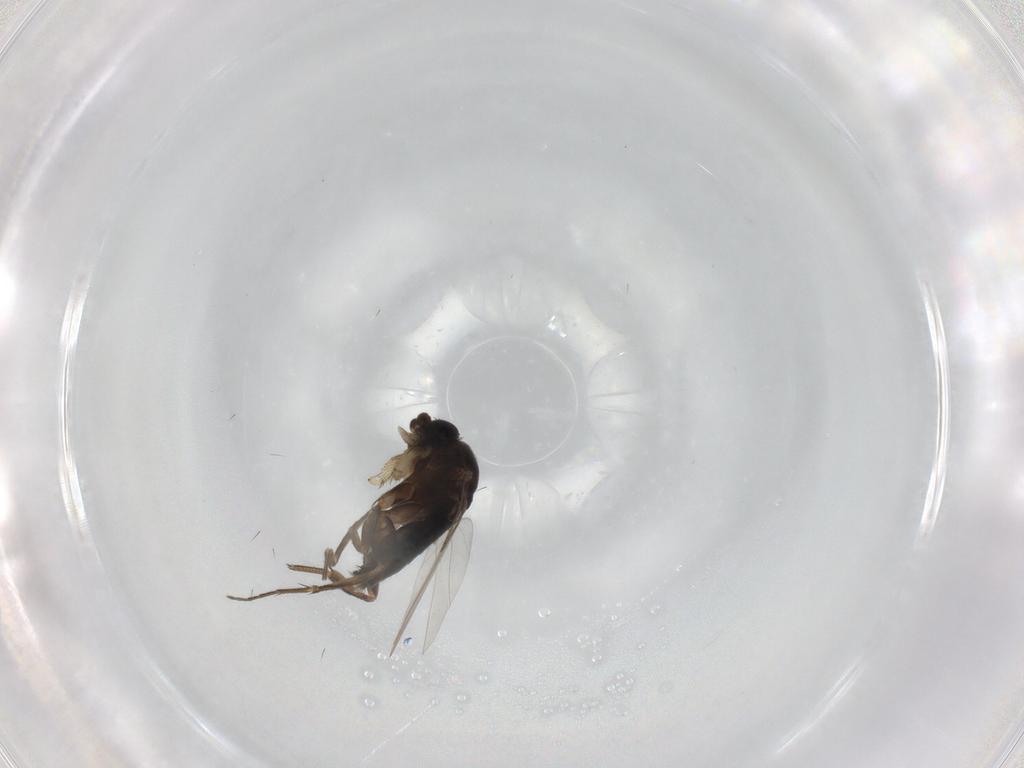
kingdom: Animalia
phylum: Arthropoda
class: Insecta
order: Diptera
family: Phoridae
